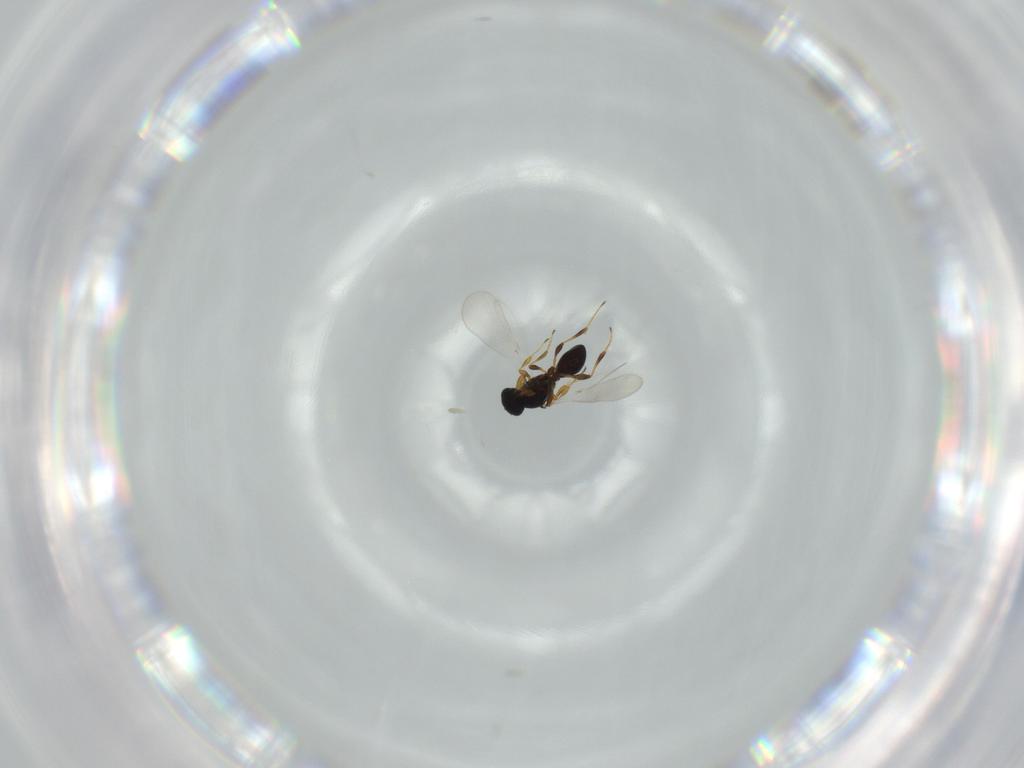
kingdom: Animalia
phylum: Arthropoda
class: Insecta
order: Hymenoptera
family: Platygastridae
